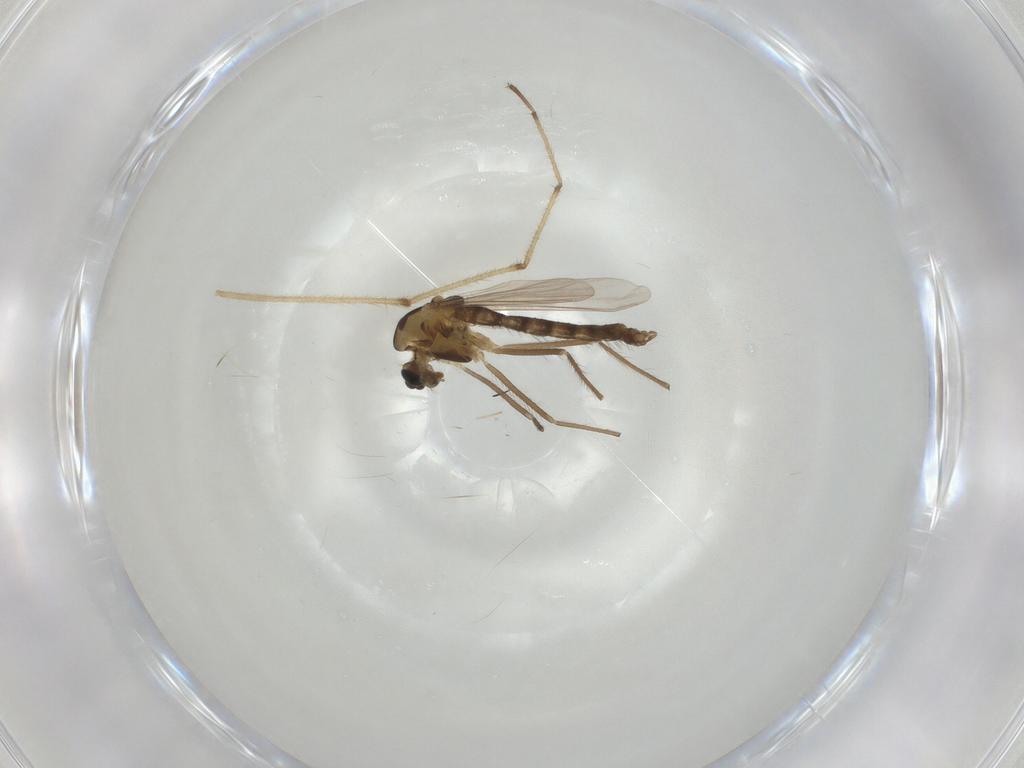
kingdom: Animalia
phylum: Arthropoda
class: Insecta
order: Diptera
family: Chironomidae
